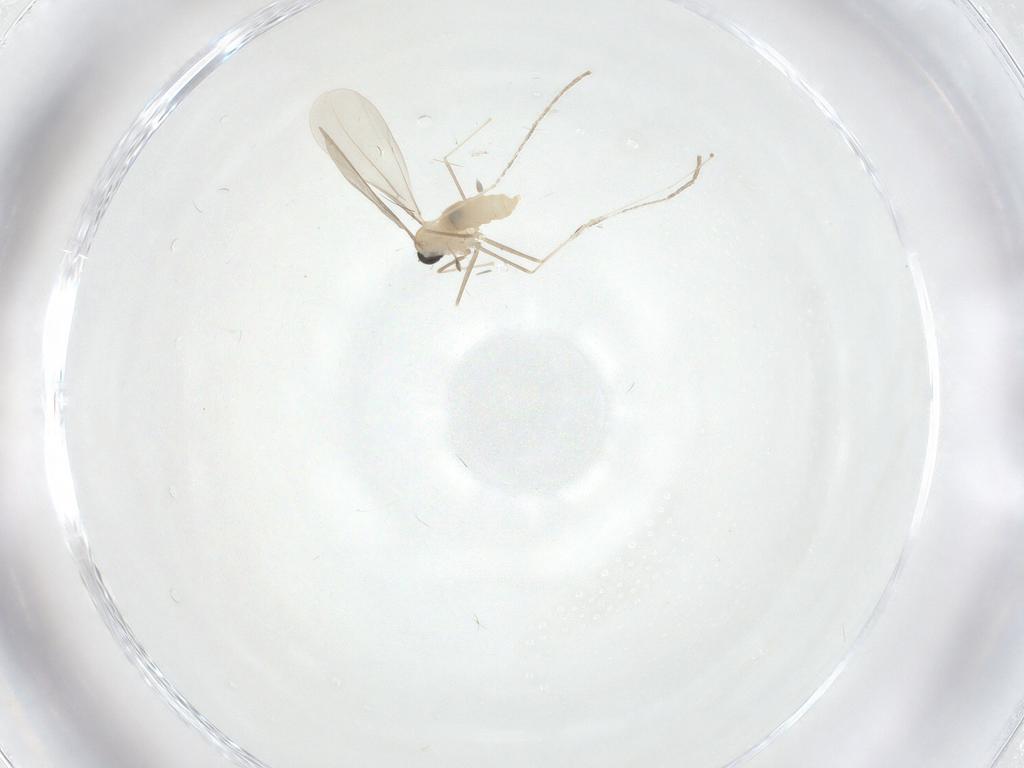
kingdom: Animalia
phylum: Arthropoda
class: Insecta
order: Diptera
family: Cecidomyiidae
